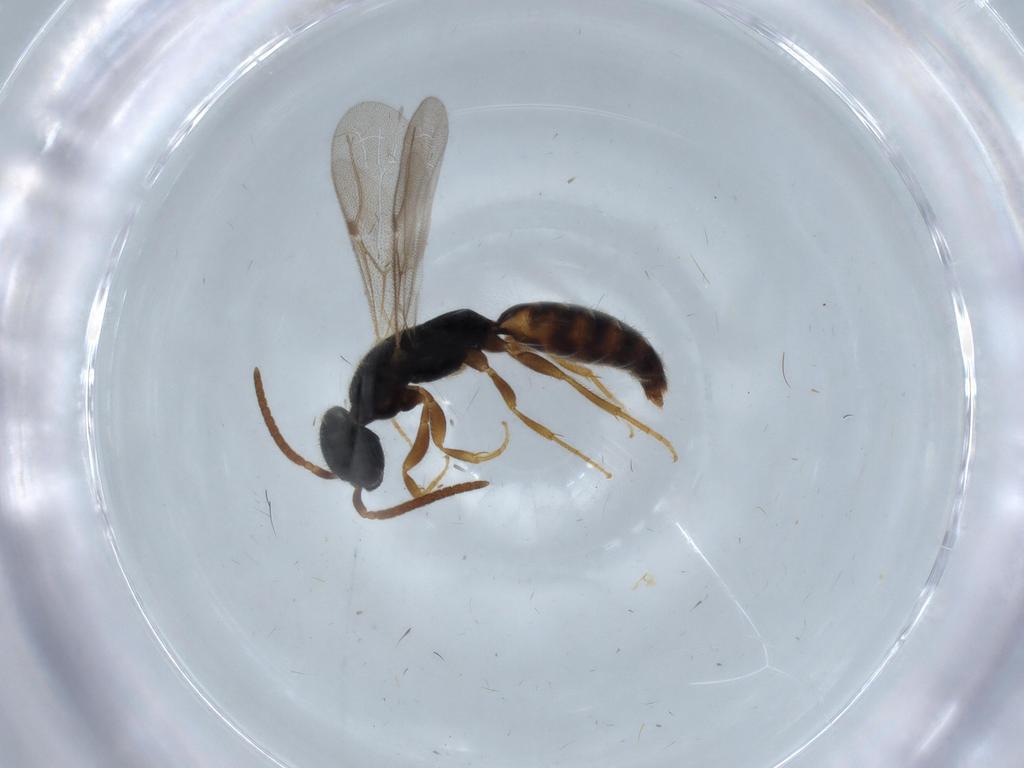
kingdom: Animalia
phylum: Arthropoda
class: Insecta
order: Hymenoptera
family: Bethylidae
